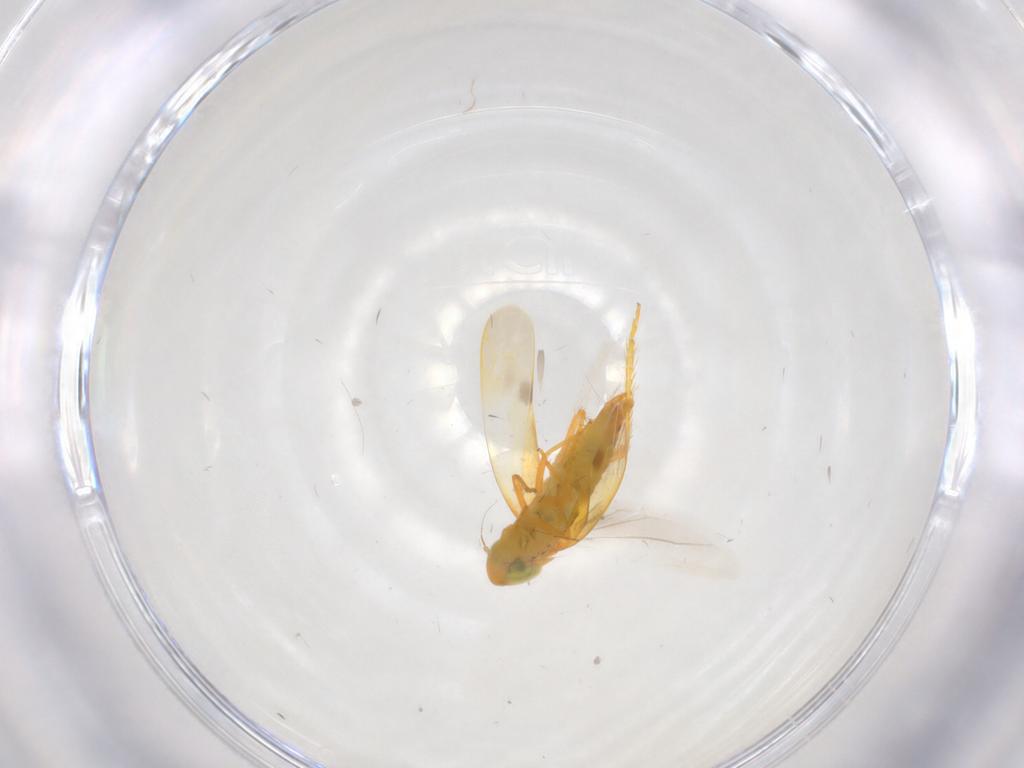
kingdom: Animalia
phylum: Arthropoda
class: Insecta
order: Hemiptera
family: Cicadellidae
